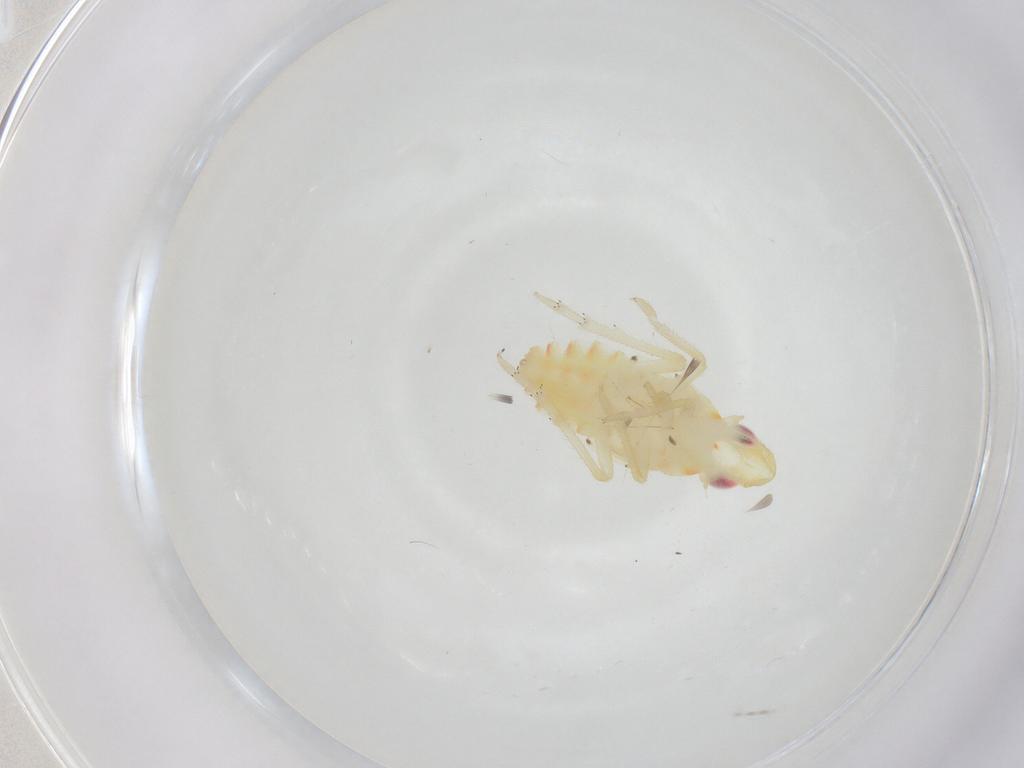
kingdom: Animalia
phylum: Arthropoda
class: Insecta
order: Hemiptera
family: Tropiduchidae
